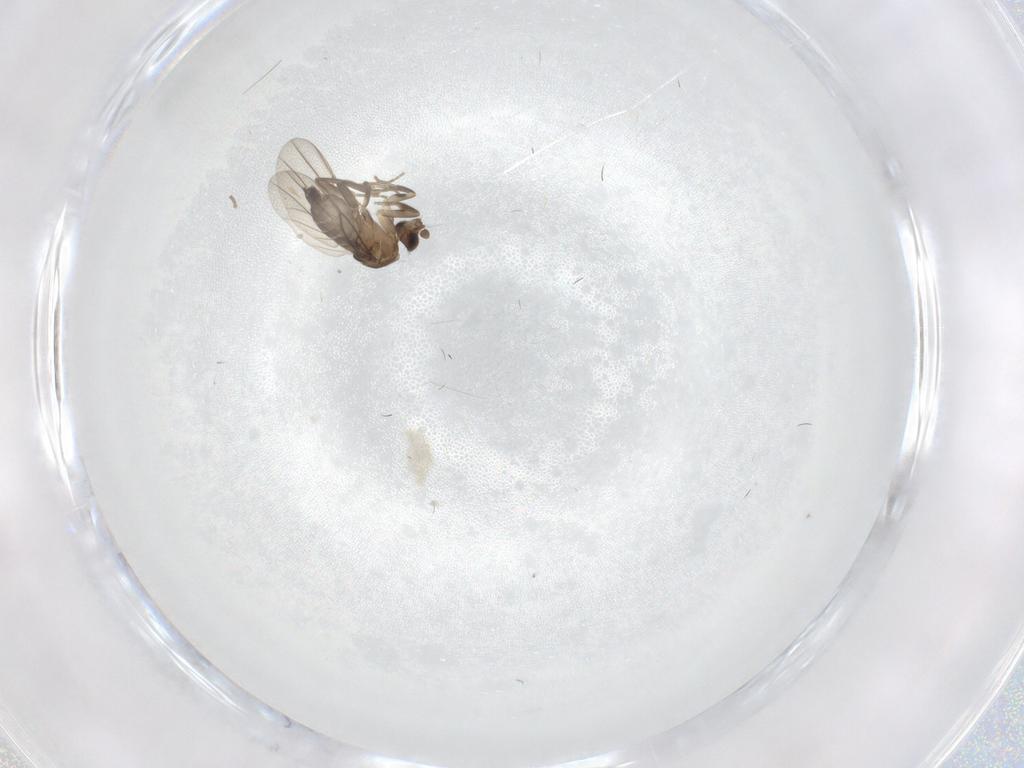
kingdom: Animalia
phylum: Arthropoda
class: Insecta
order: Diptera
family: Phoridae
